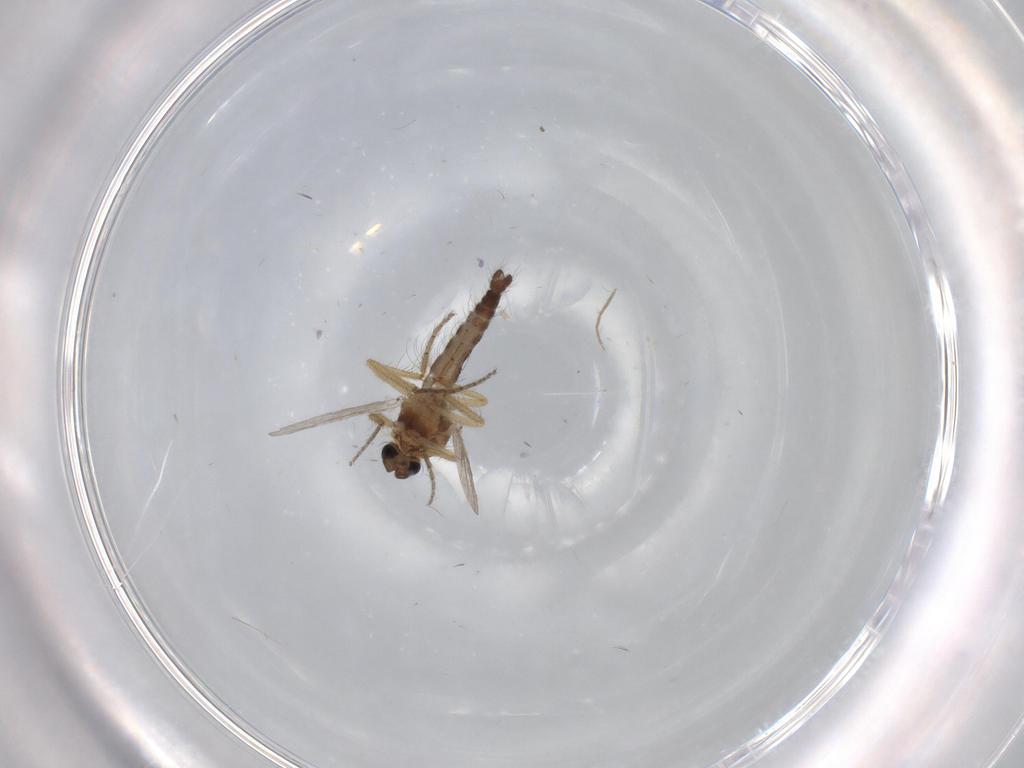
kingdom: Animalia
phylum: Arthropoda
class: Insecta
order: Diptera
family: Ceratopogonidae
